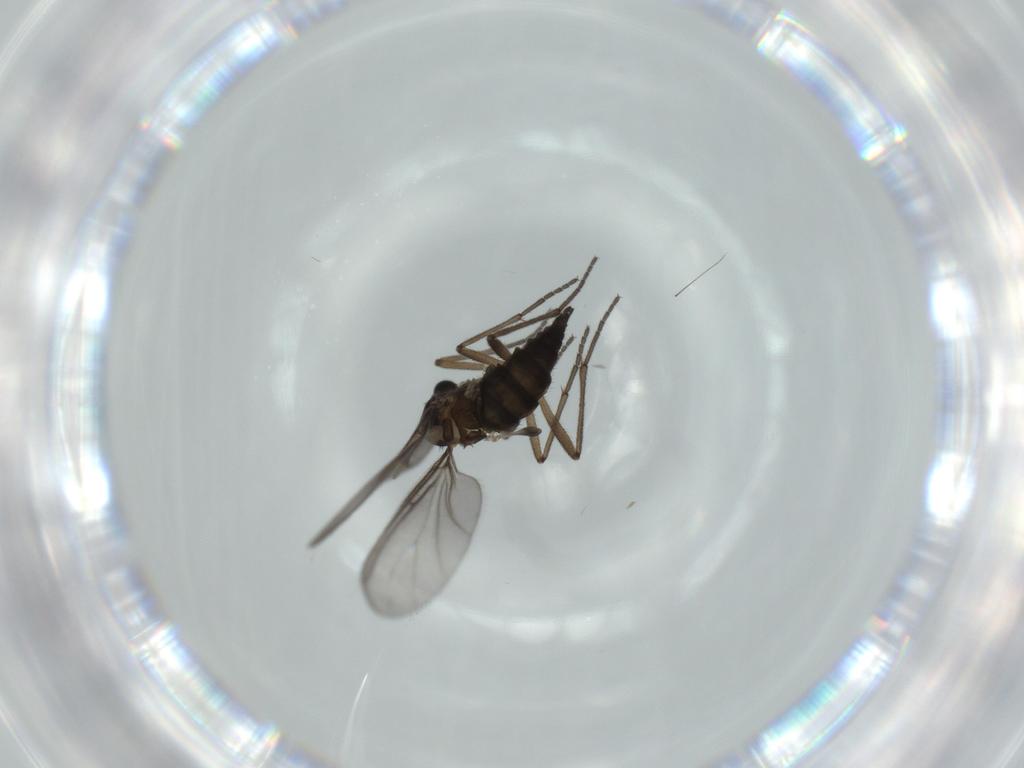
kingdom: Animalia
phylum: Arthropoda
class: Insecta
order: Diptera
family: Sciaridae
